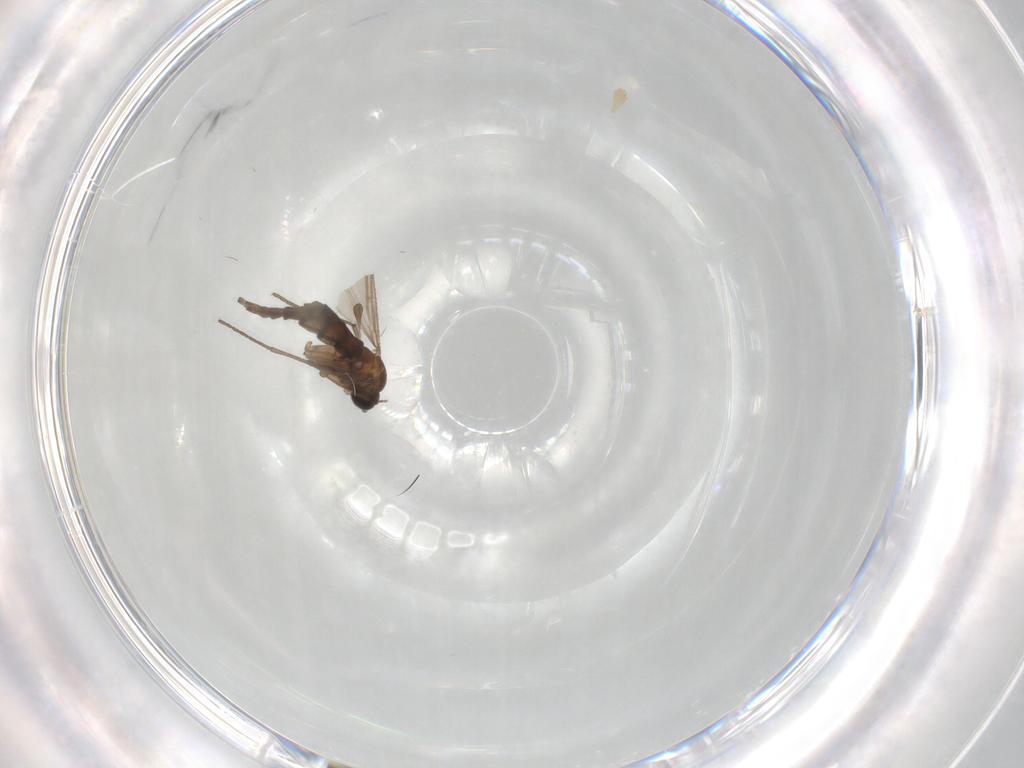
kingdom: Animalia
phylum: Arthropoda
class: Insecta
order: Diptera
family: Sciaridae
